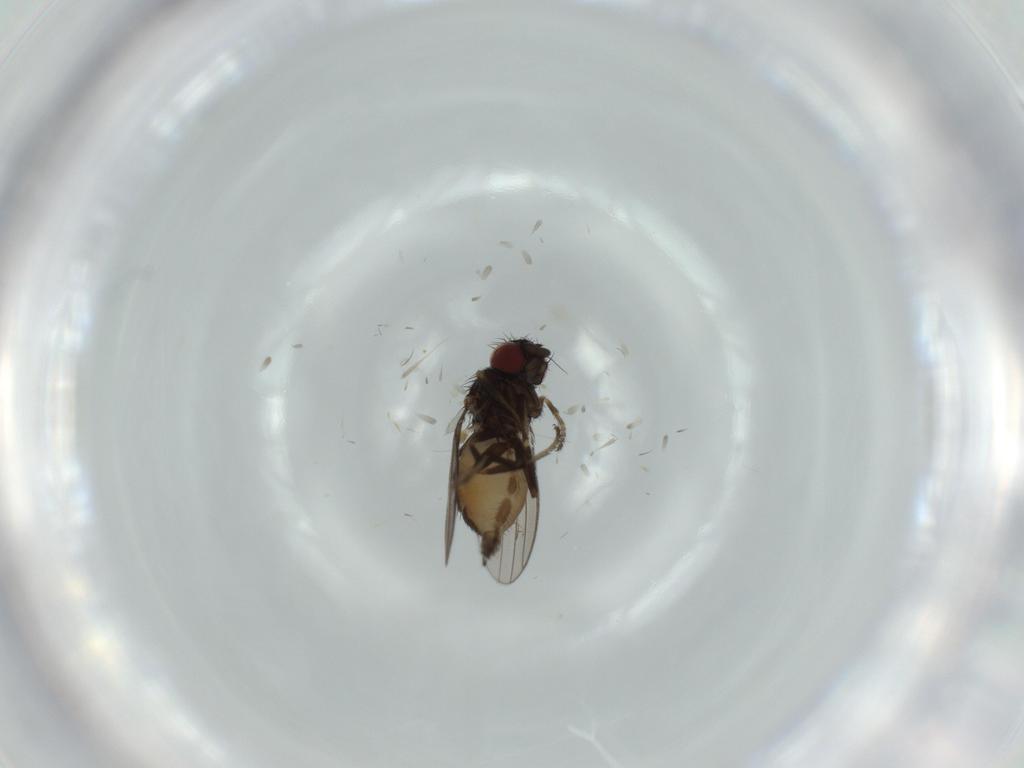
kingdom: Animalia
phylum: Arthropoda
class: Insecta
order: Diptera
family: Milichiidae
